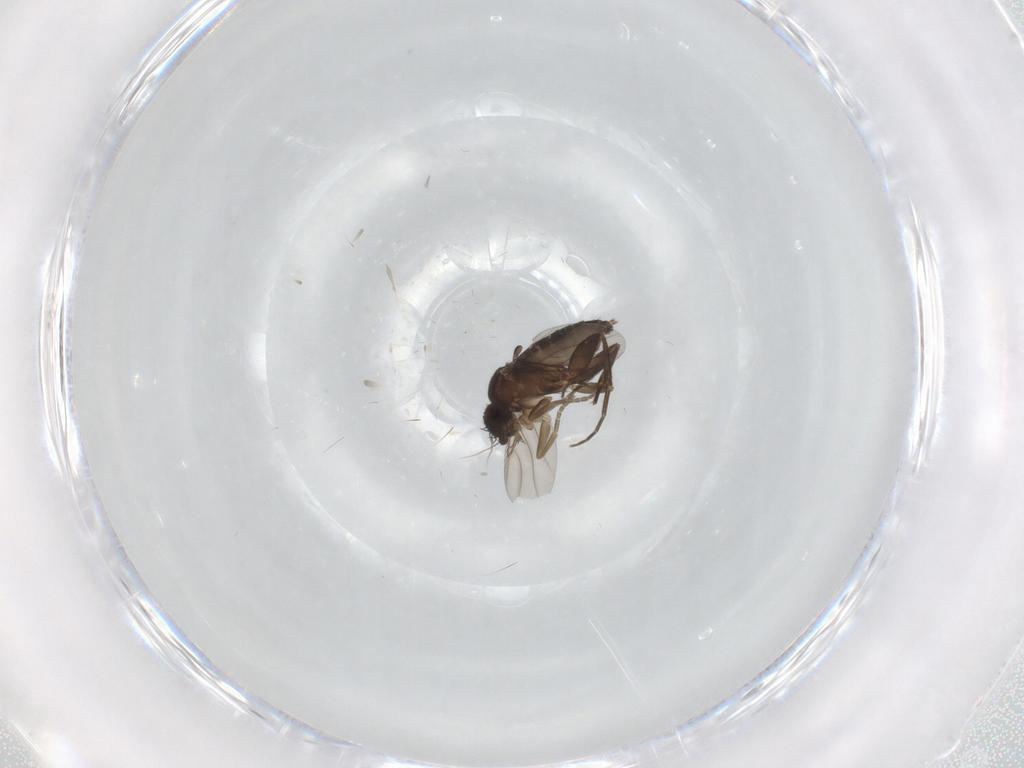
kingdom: Animalia
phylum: Arthropoda
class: Insecta
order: Diptera
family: Phoridae
